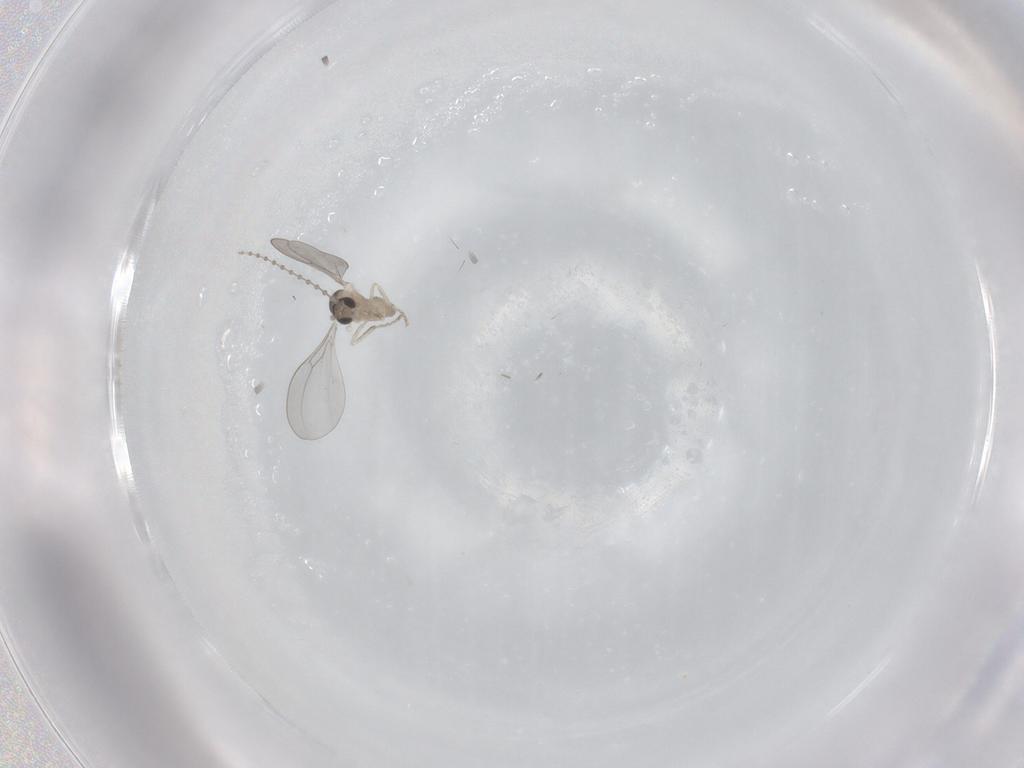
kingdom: Animalia
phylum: Arthropoda
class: Insecta
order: Diptera
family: Cecidomyiidae
